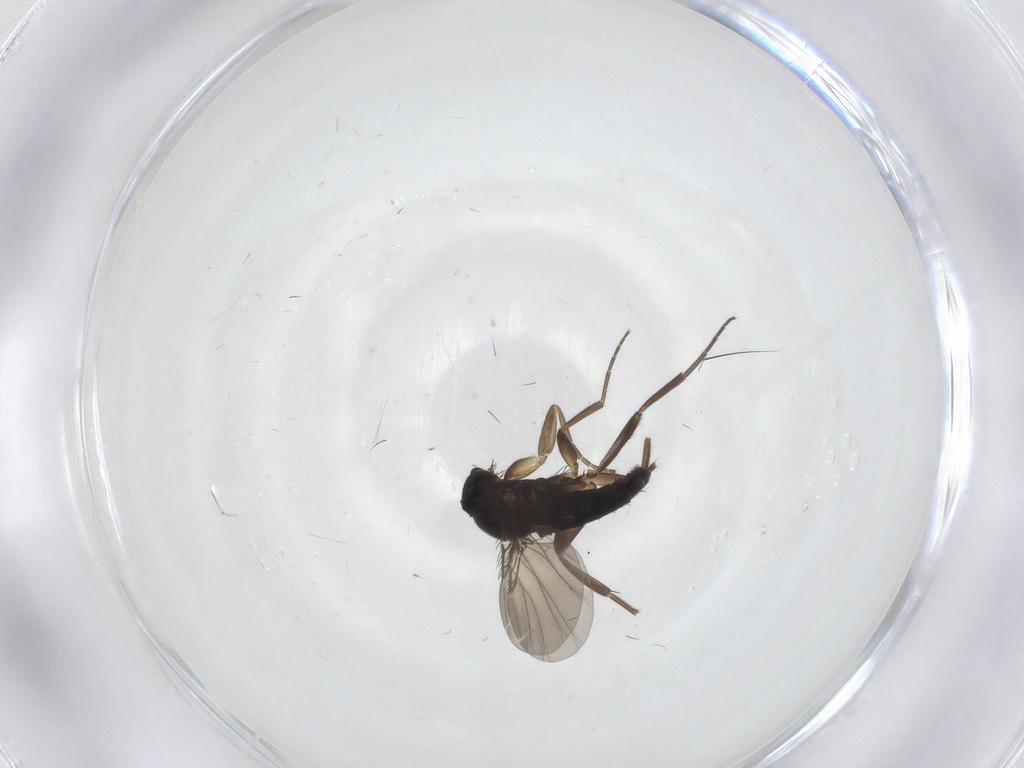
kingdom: Animalia
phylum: Arthropoda
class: Insecta
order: Diptera
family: Phoridae
